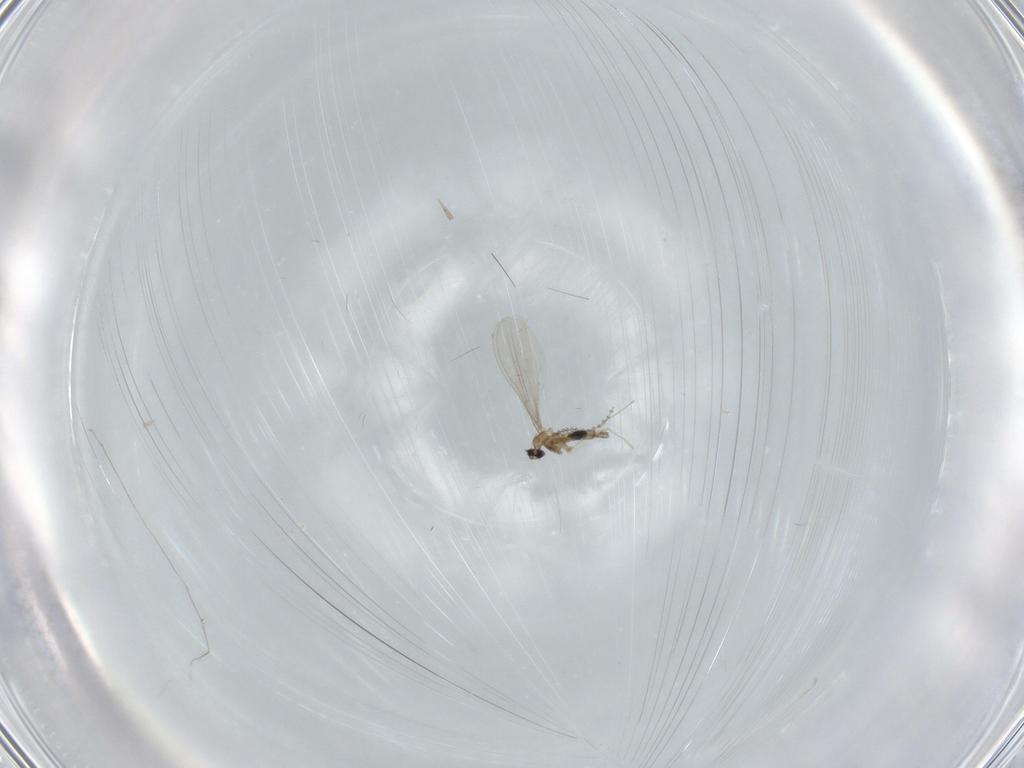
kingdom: Animalia
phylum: Arthropoda
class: Insecta
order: Diptera
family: Cecidomyiidae
